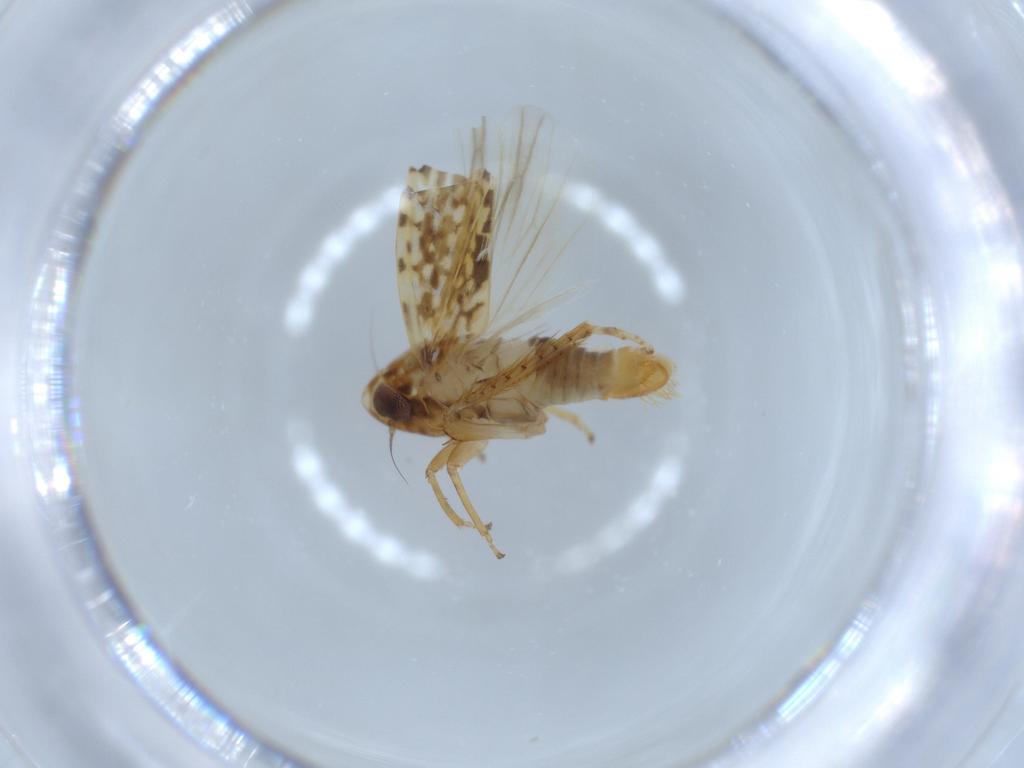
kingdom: Animalia
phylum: Arthropoda
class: Insecta
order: Hemiptera
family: Cicadellidae
